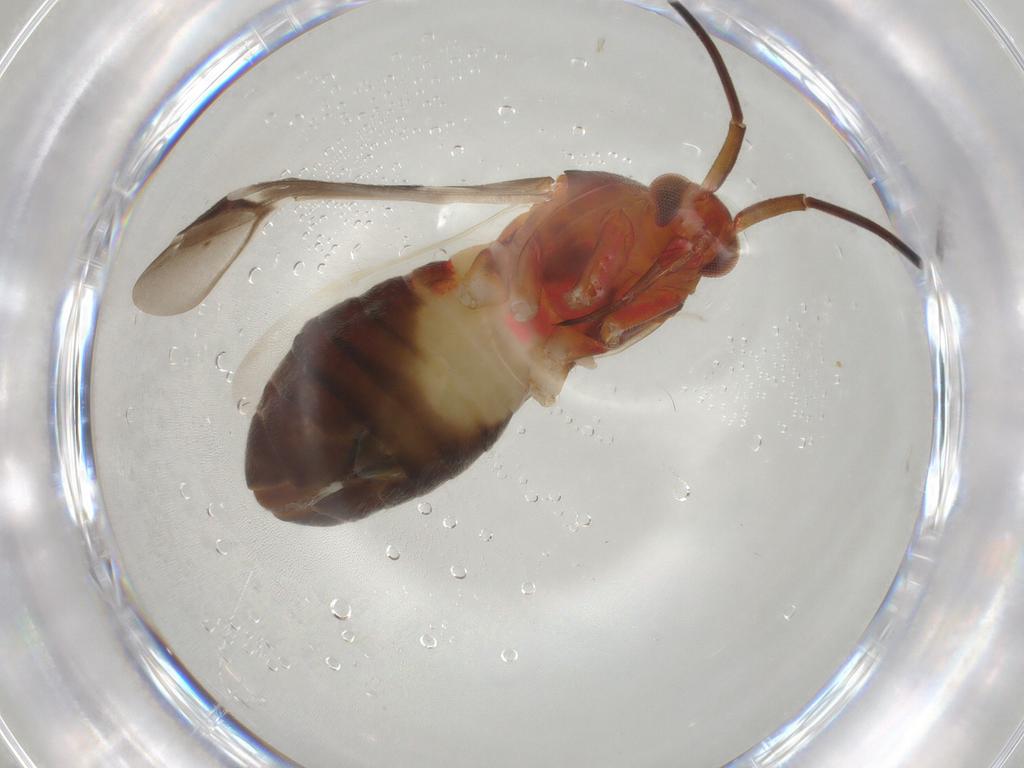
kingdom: Animalia
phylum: Arthropoda
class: Insecta
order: Hemiptera
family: Miridae
